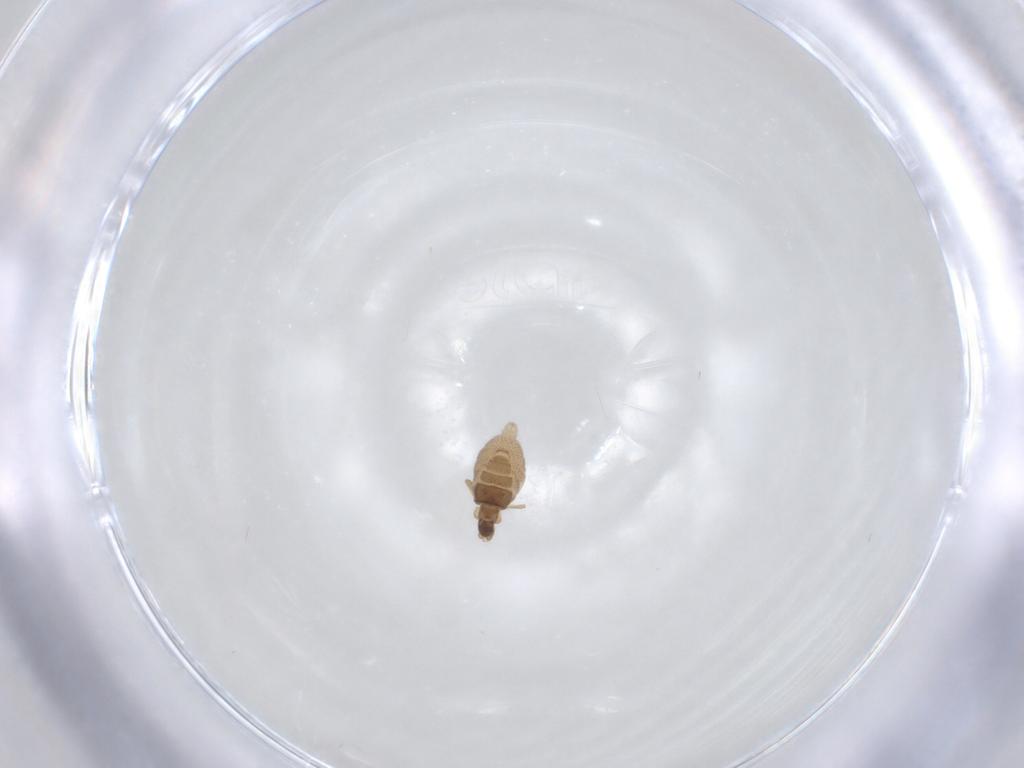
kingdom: Animalia
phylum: Arthropoda
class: Insecta
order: Diptera
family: Phoridae
